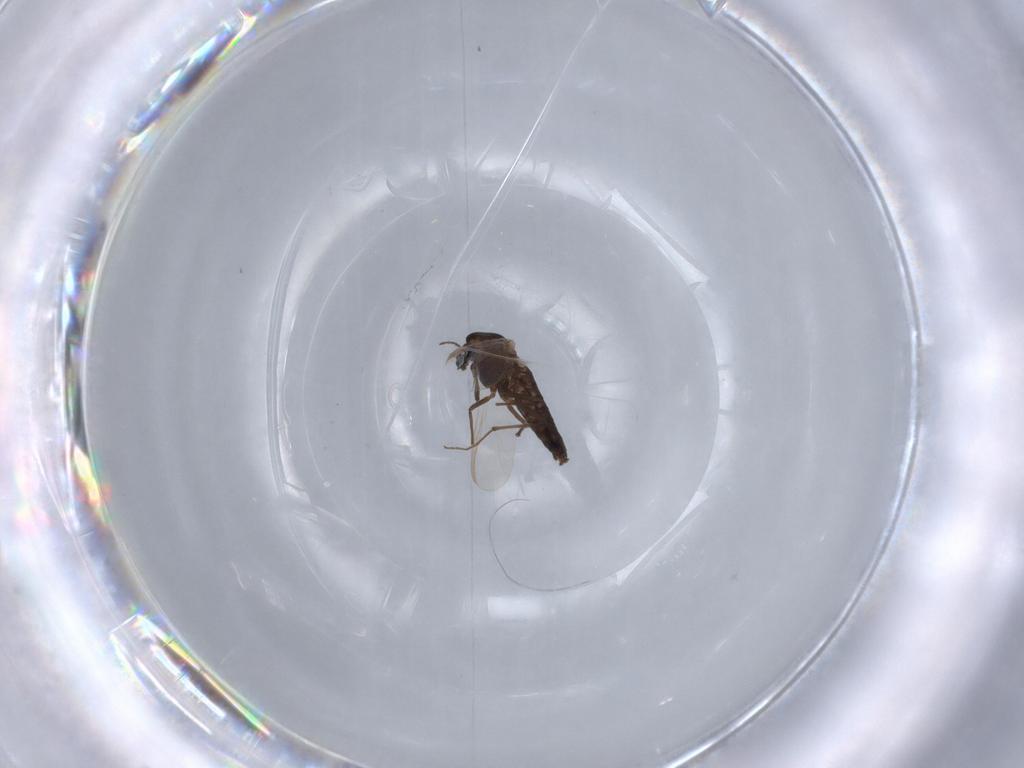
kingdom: Animalia
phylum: Arthropoda
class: Insecta
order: Diptera
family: Chironomidae
